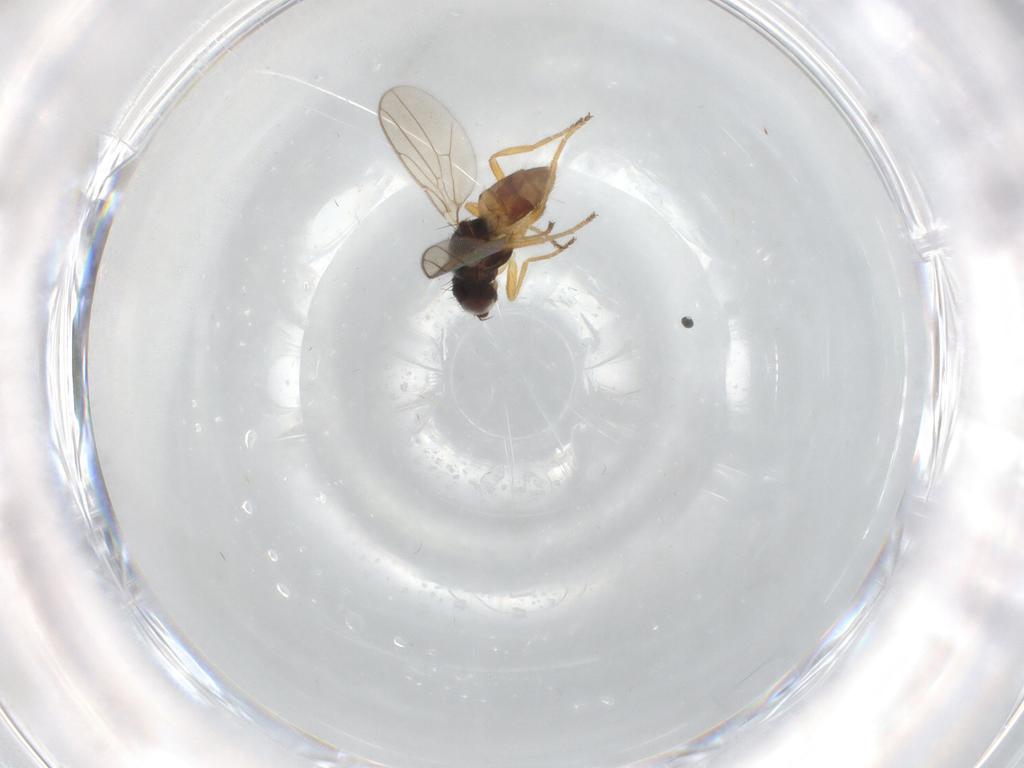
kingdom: Animalia
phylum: Arthropoda
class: Insecta
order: Diptera
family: Chloropidae
